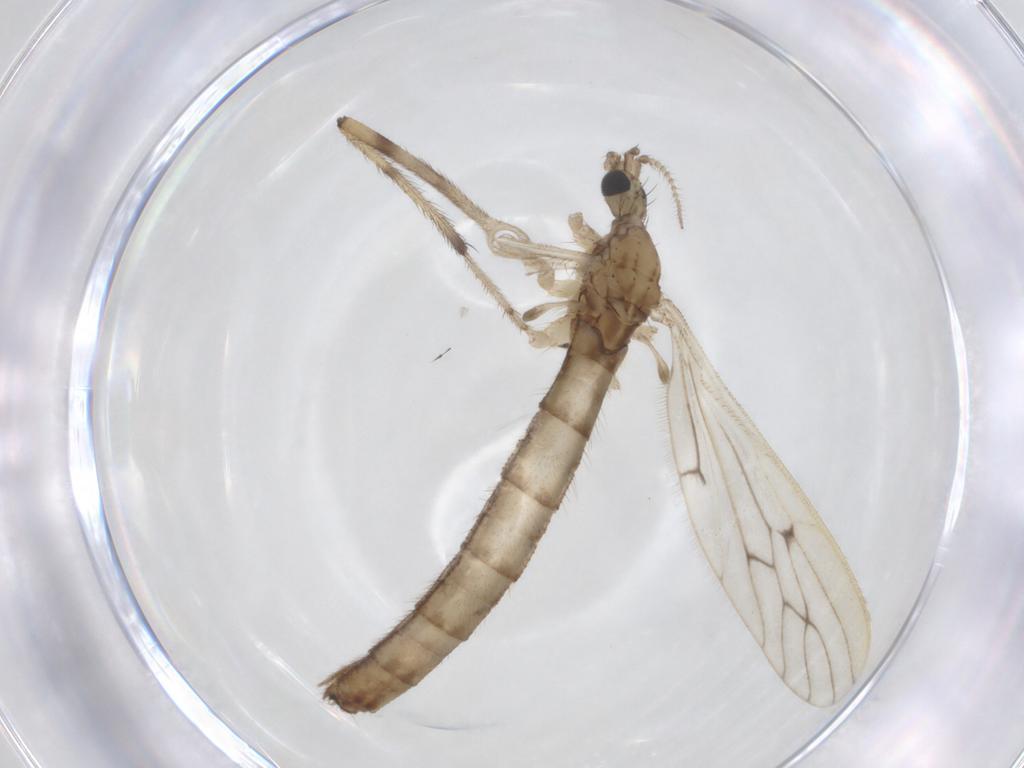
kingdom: Animalia
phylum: Arthropoda
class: Insecta
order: Diptera
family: Limoniidae
